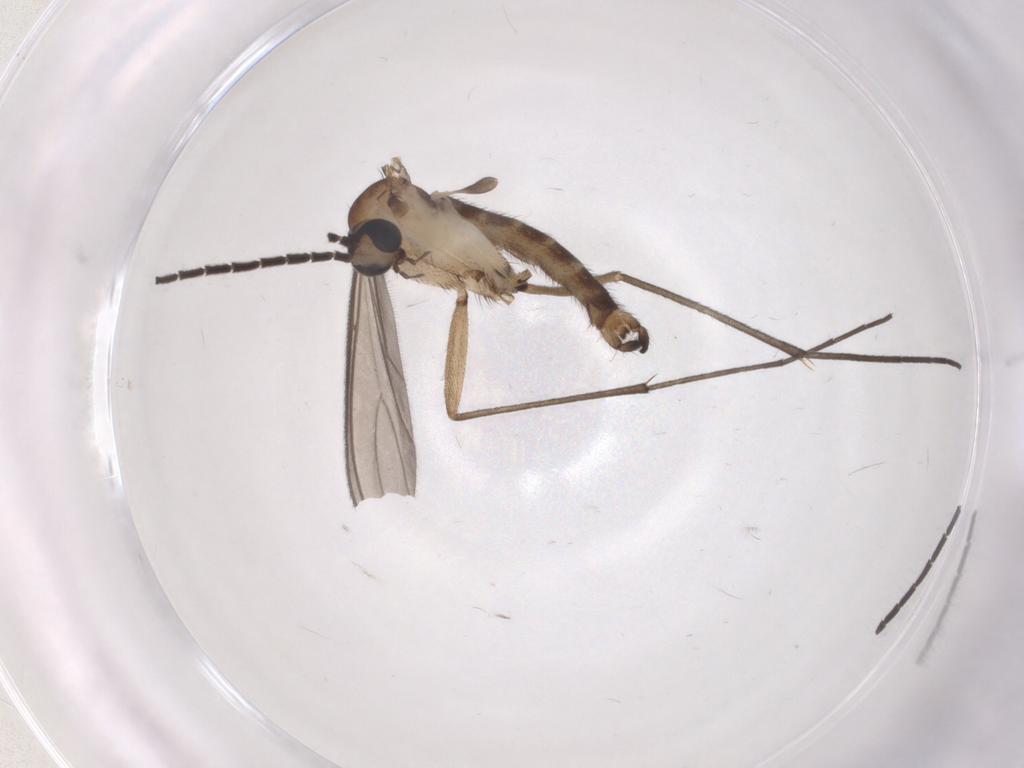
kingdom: Animalia
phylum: Arthropoda
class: Insecta
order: Diptera
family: Sciaridae
